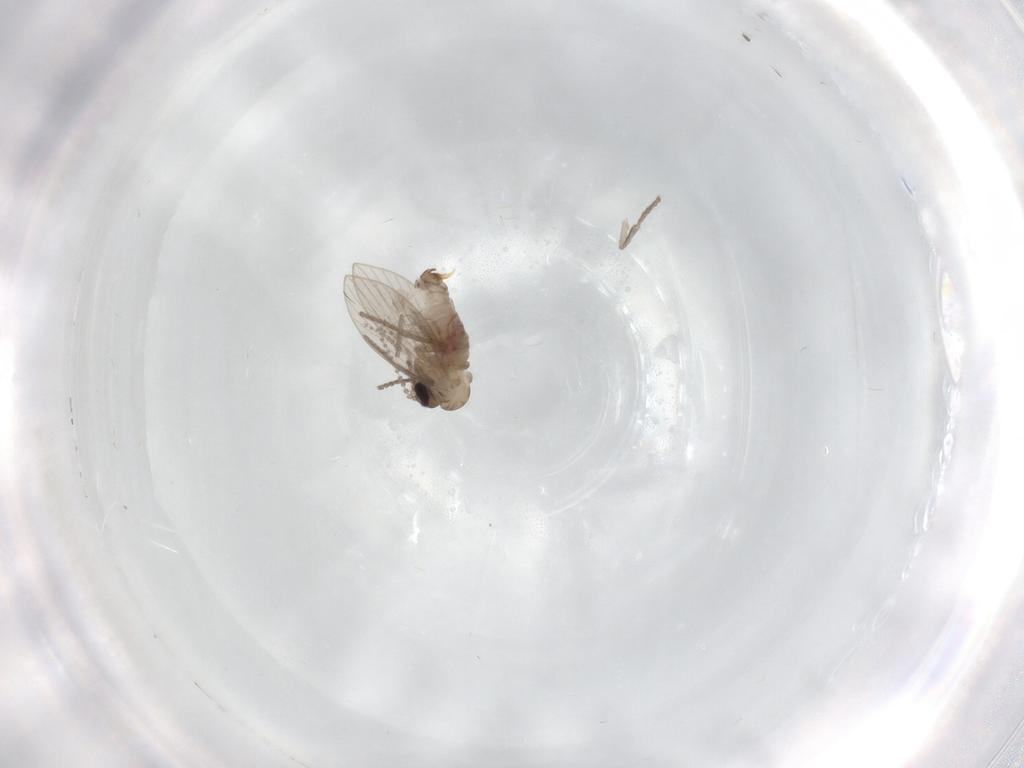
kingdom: Animalia
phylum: Arthropoda
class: Insecta
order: Diptera
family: Psychodidae
